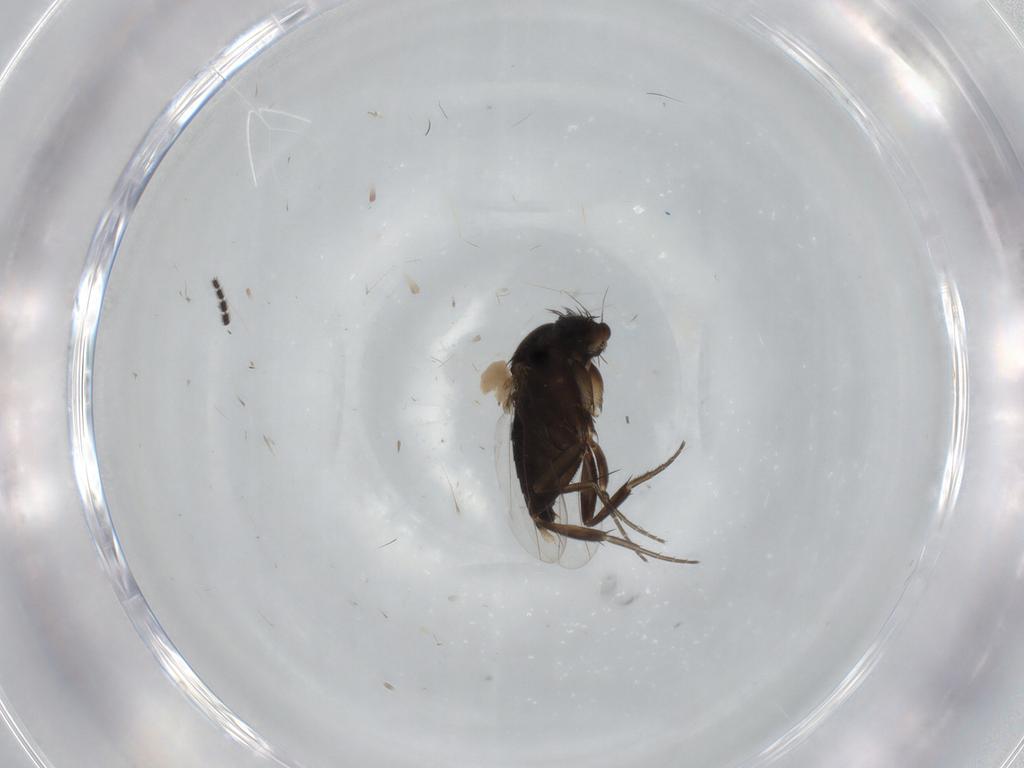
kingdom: Animalia
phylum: Arthropoda
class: Insecta
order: Diptera
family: Phoridae
